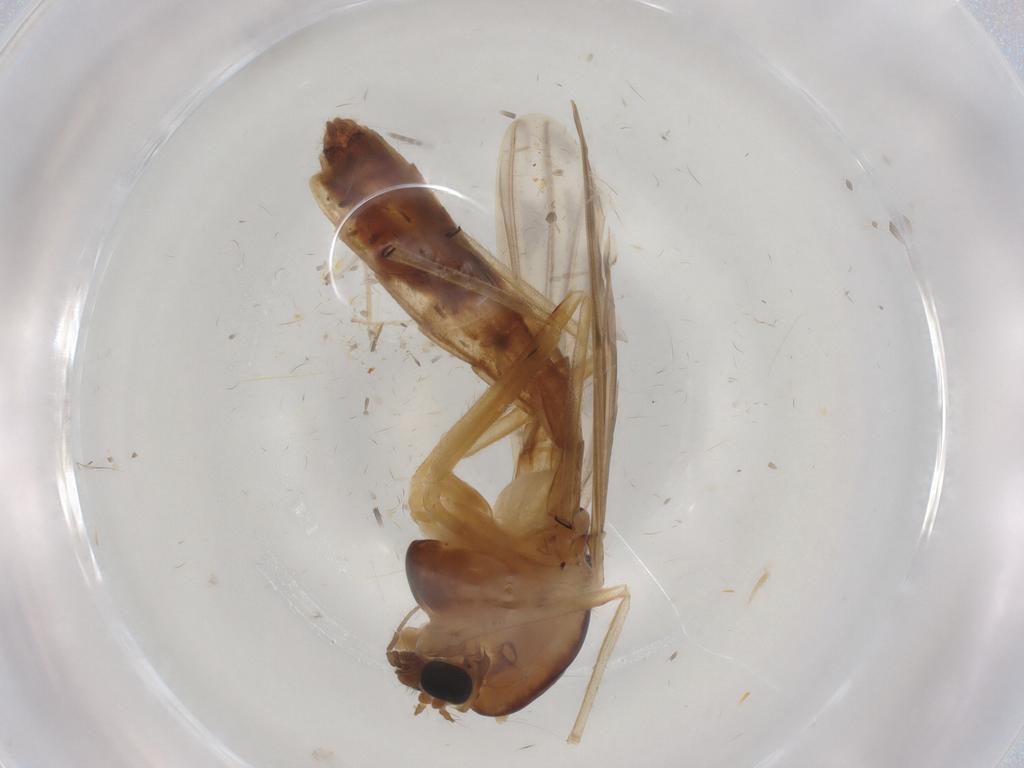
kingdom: Animalia
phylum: Arthropoda
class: Insecta
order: Diptera
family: Chironomidae
